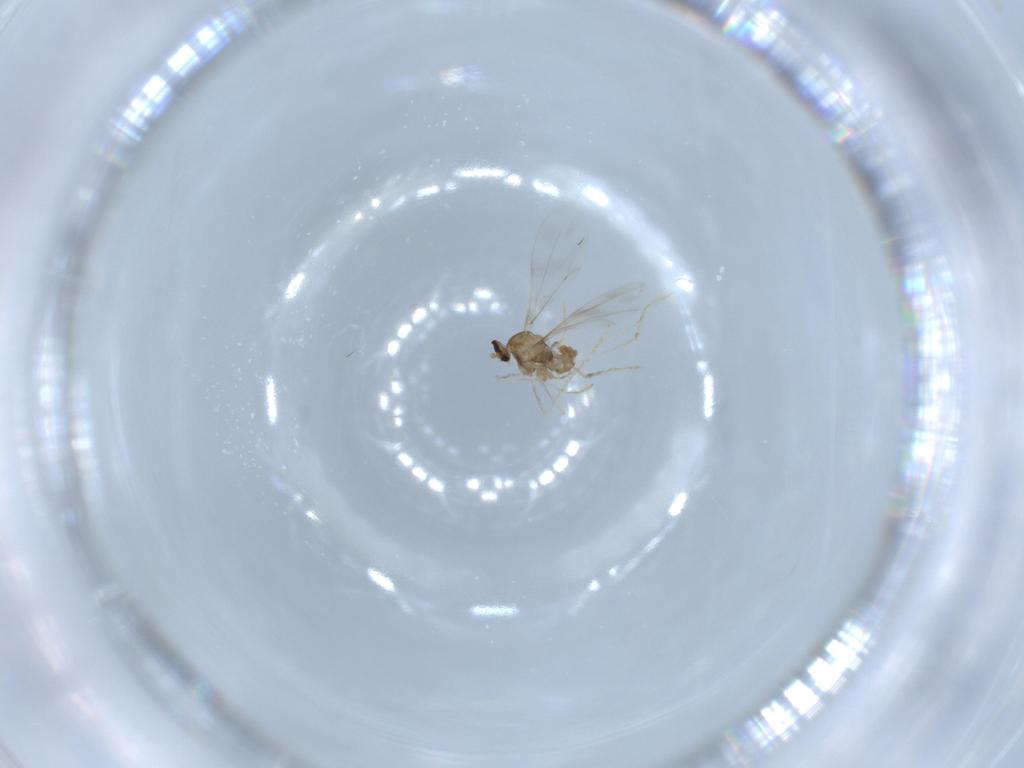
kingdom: Animalia
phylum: Arthropoda
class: Insecta
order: Diptera
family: Cecidomyiidae
